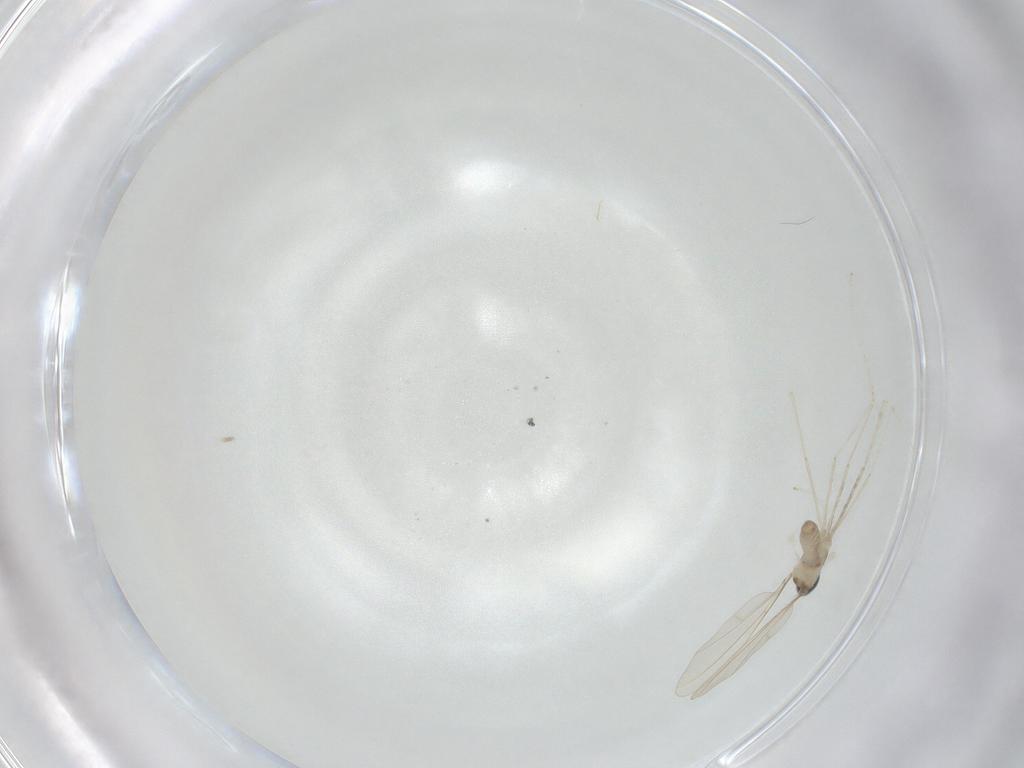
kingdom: Animalia
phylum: Arthropoda
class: Insecta
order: Diptera
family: Cecidomyiidae
